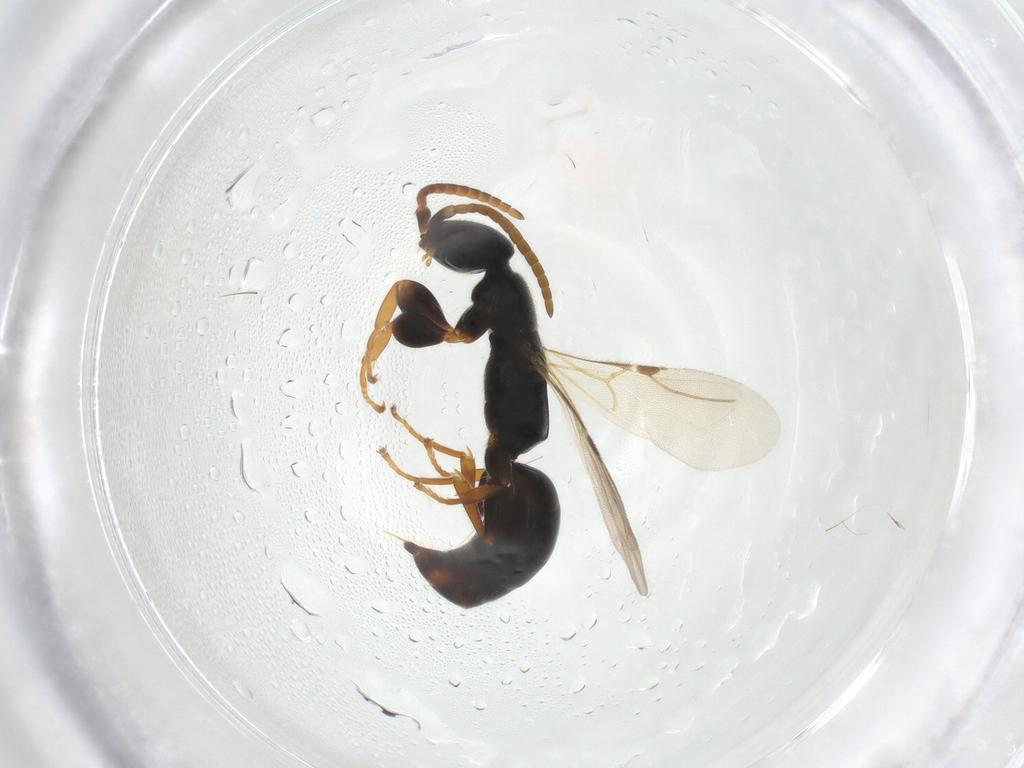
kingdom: Animalia
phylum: Arthropoda
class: Insecta
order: Hymenoptera
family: Bethylidae
